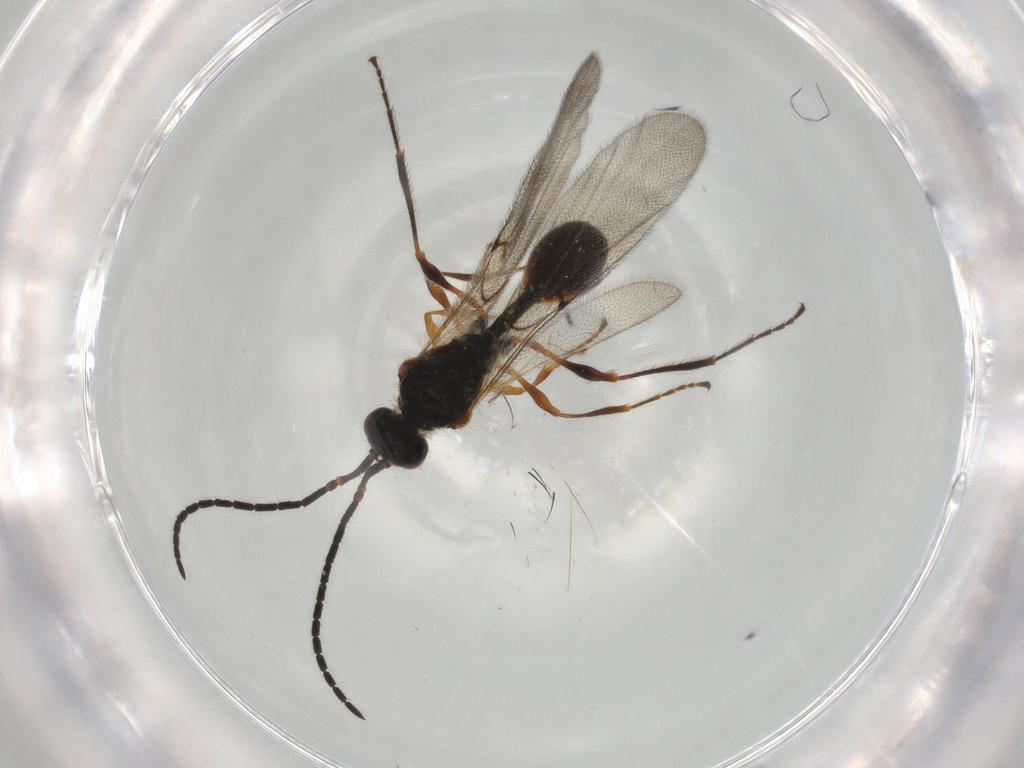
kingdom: Animalia
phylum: Arthropoda
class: Insecta
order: Hymenoptera
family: Diapriidae
